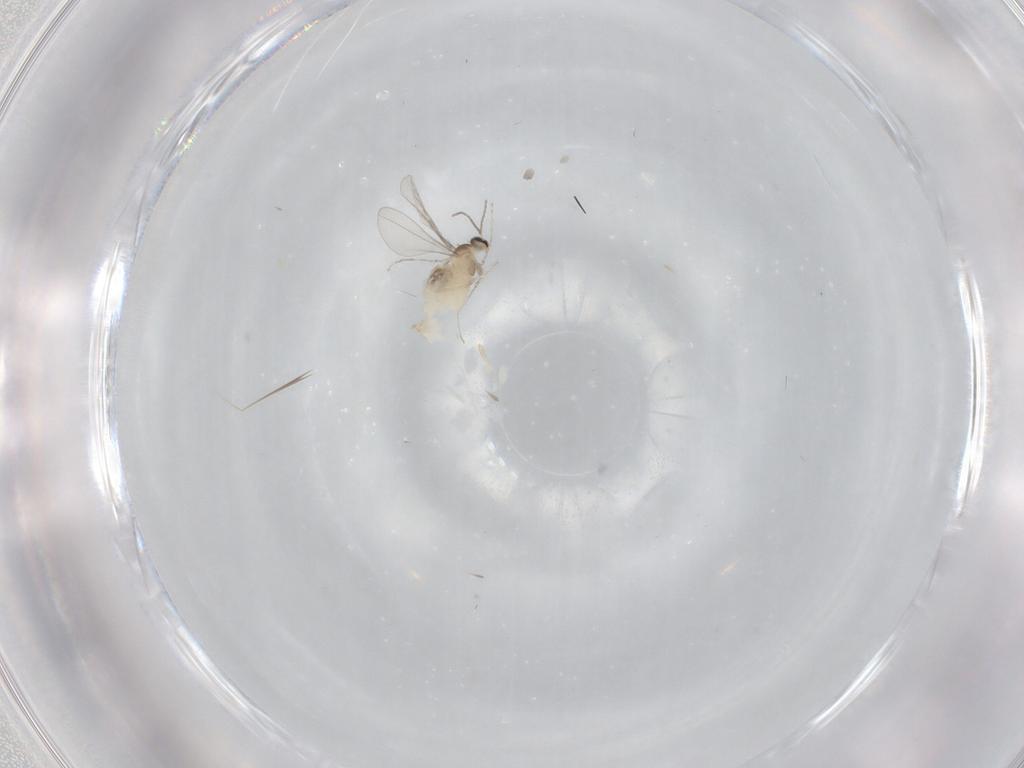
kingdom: Animalia
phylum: Arthropoda
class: Insecta
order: Diptera
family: Cecidomyiidae
